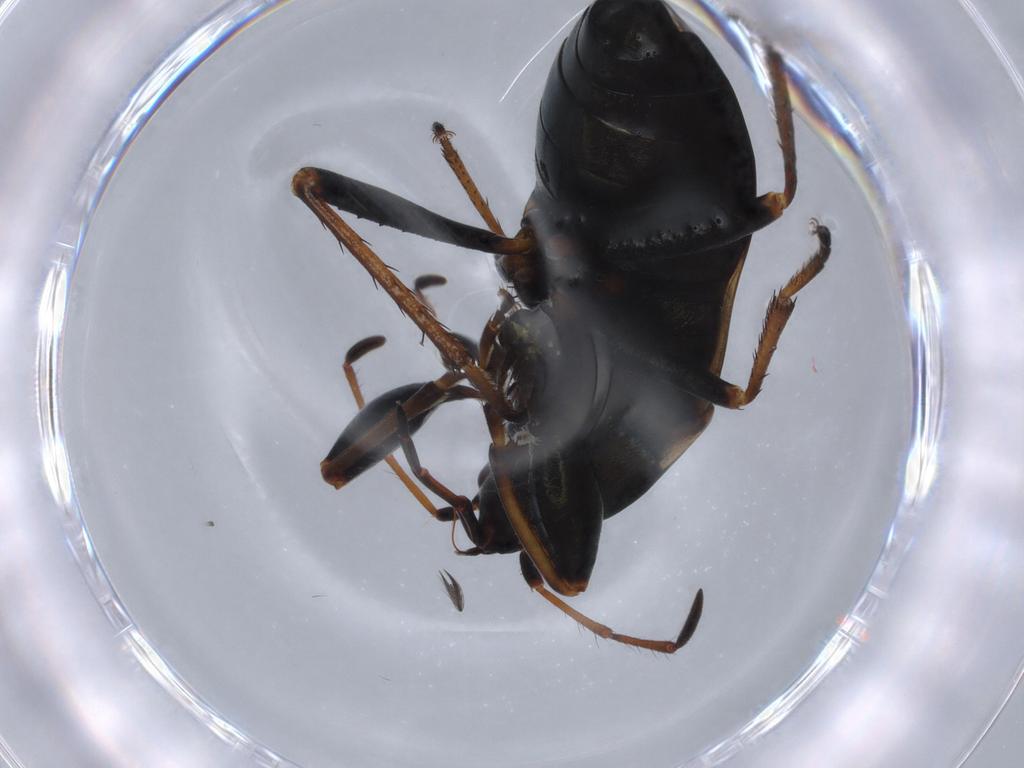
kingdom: Animalia
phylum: Arthropoda
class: Insecta
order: Hemiptera
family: Rhyparochromidae
